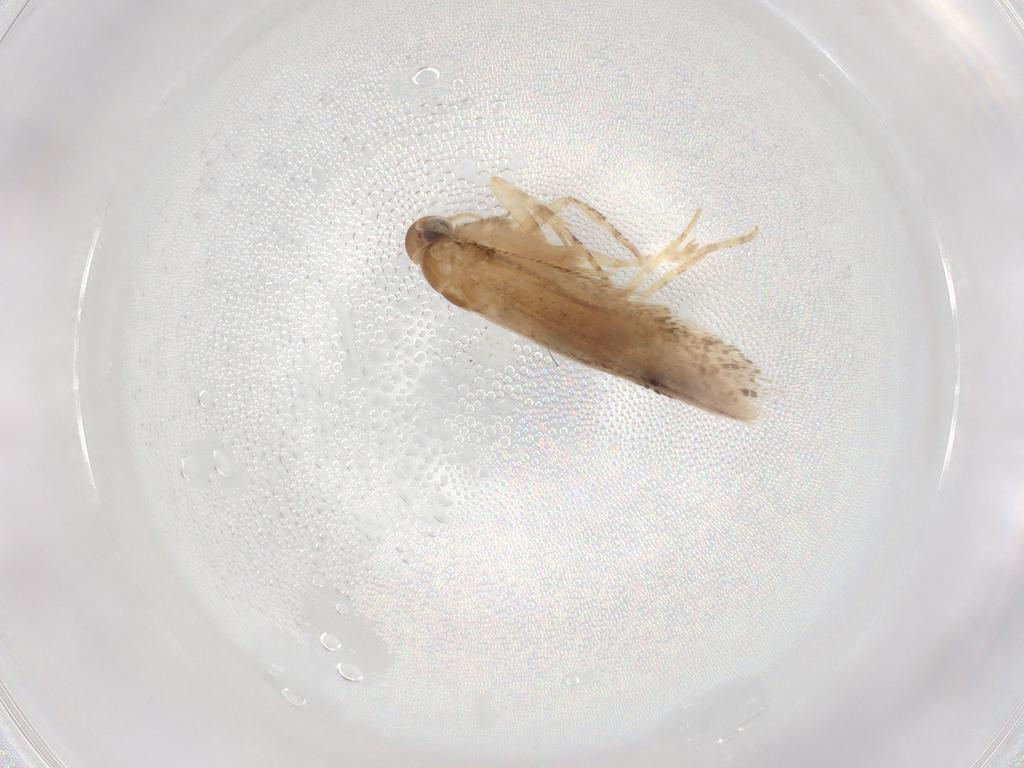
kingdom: Animalia
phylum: Arthropoda
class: Insecta
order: Lepidoptera
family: Gelechiidae
